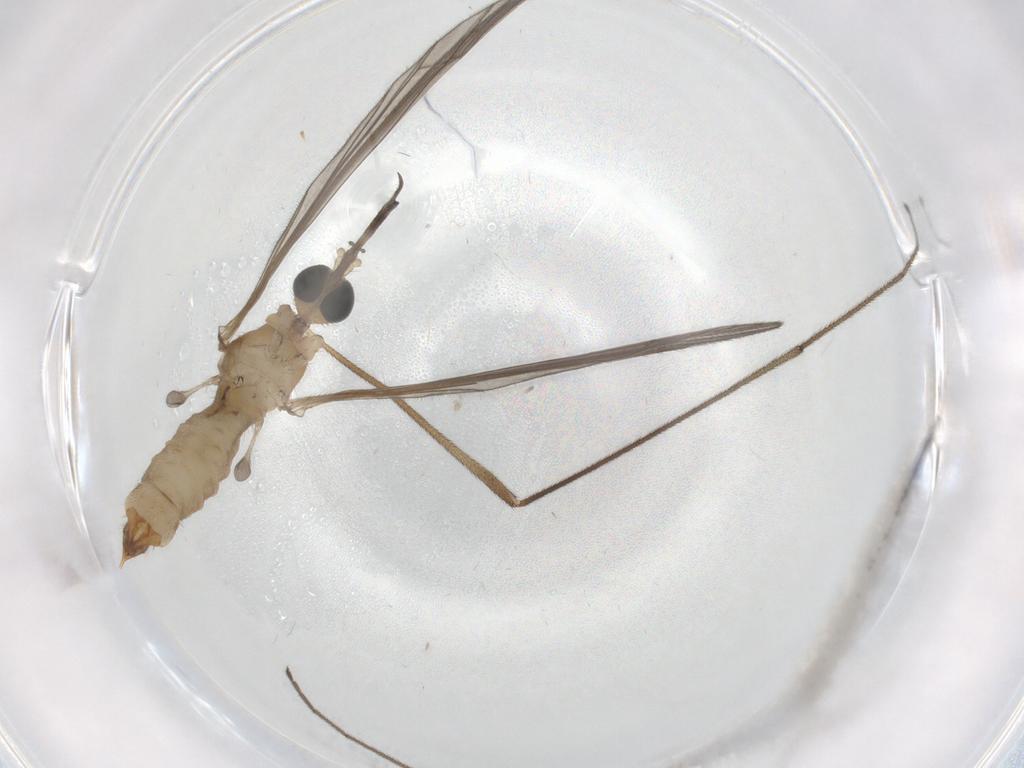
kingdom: Animalia
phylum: Arthropoda
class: Insecta
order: Diptera
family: Cecidomyiidae
